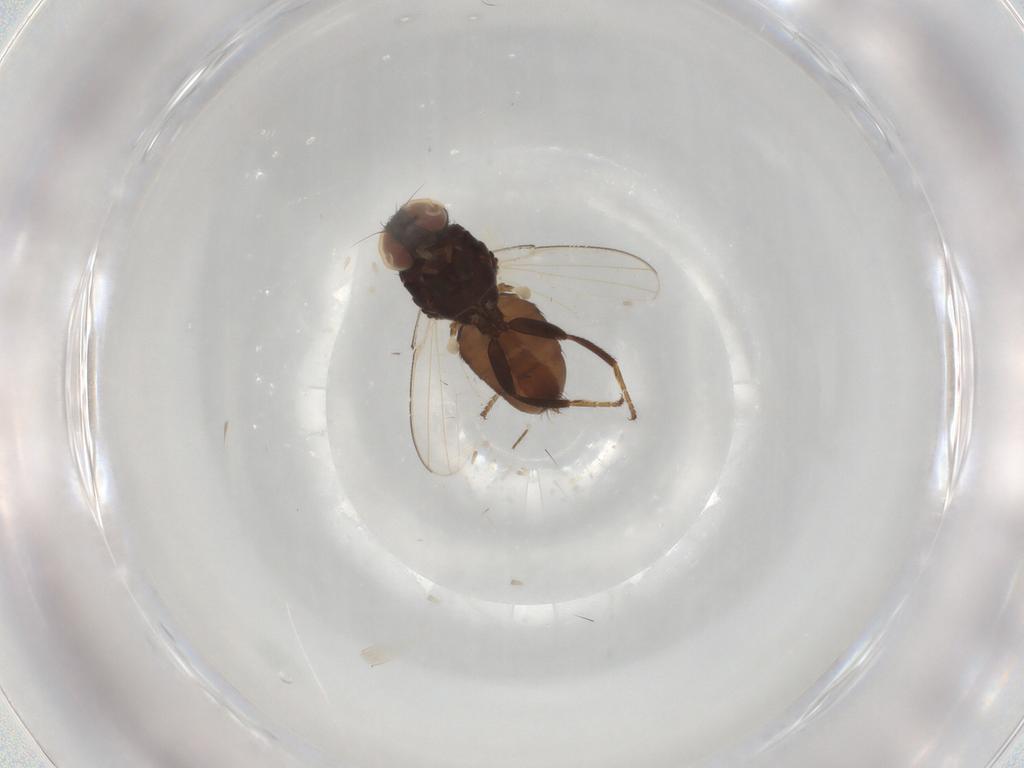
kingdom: Animalia
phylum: Arthropoda
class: Insecta
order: Diptera
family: Milichiidae
